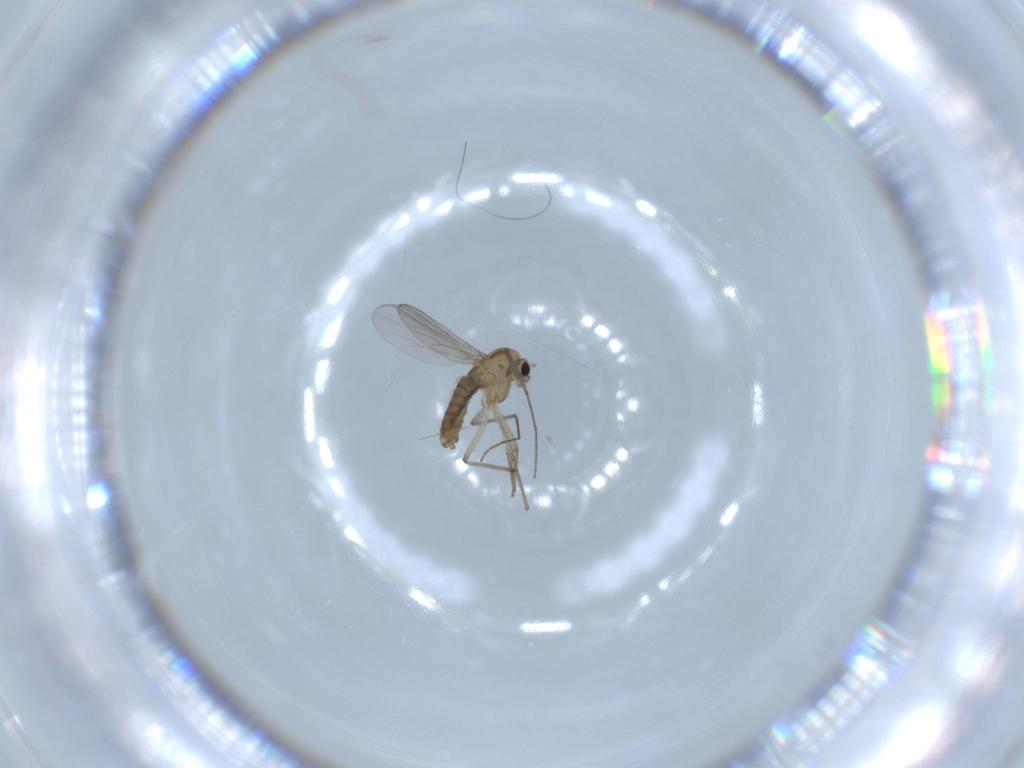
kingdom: Animalia
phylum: Arthropoda
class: Insecta
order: Diptera
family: Chironomidae
